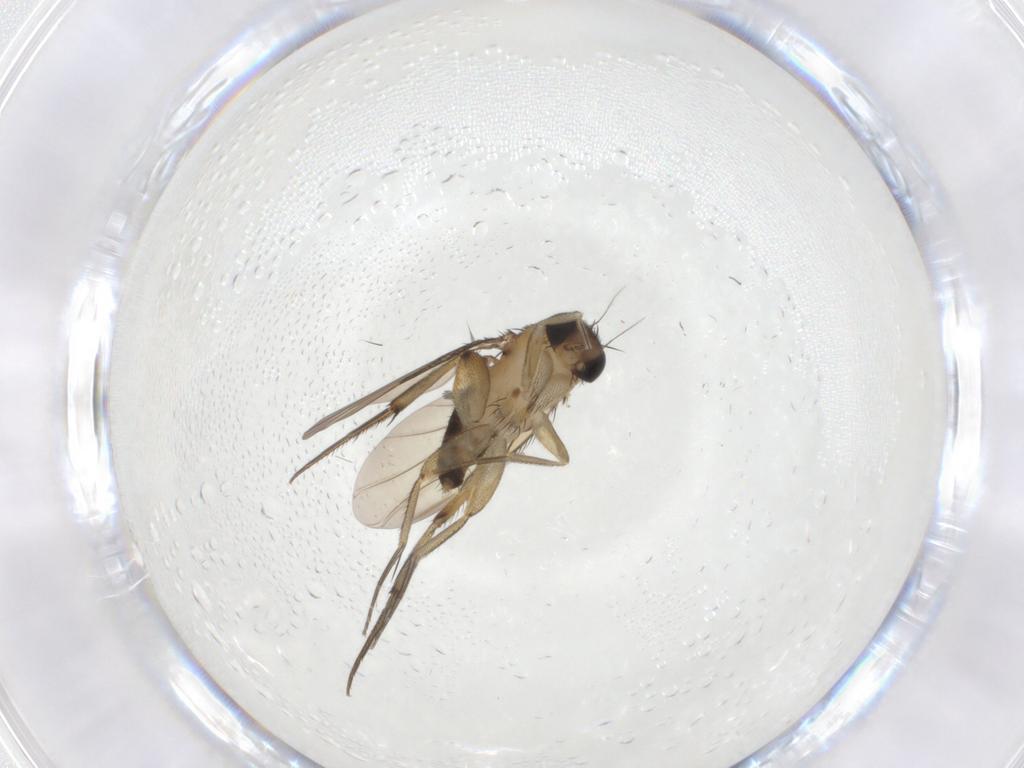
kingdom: Animalia
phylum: Arthropoda
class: Insecta
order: Diptera
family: Phoridae
